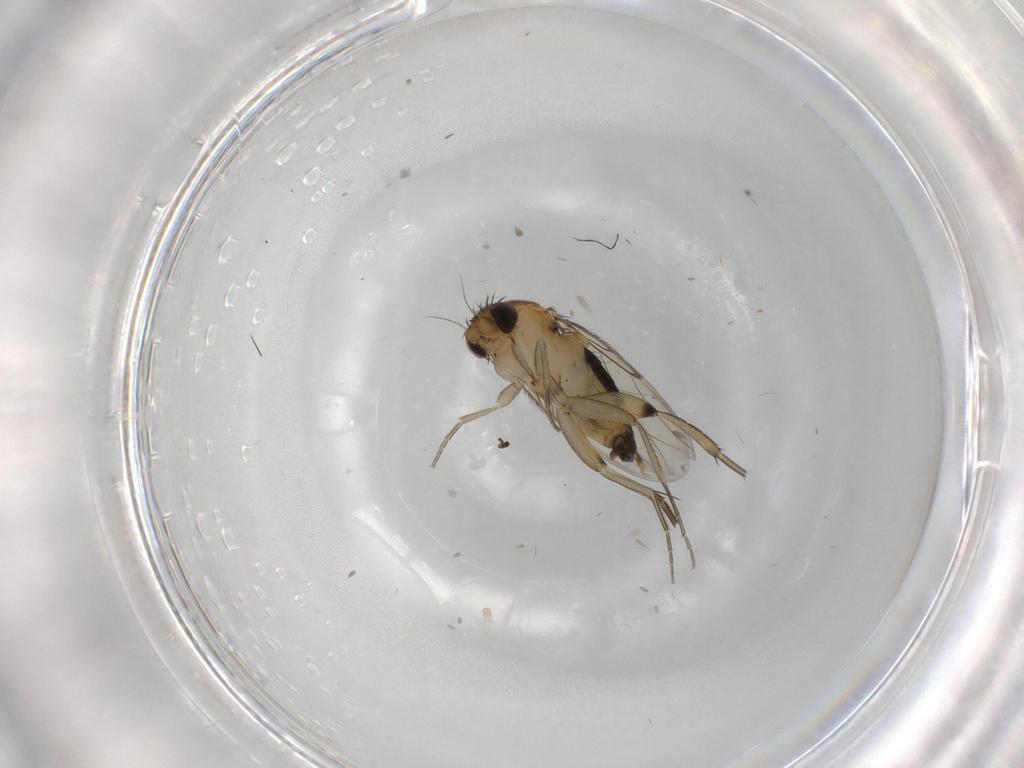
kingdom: Animalia
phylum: Arthropoda
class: Insecta
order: Diptera
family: Phoridae
